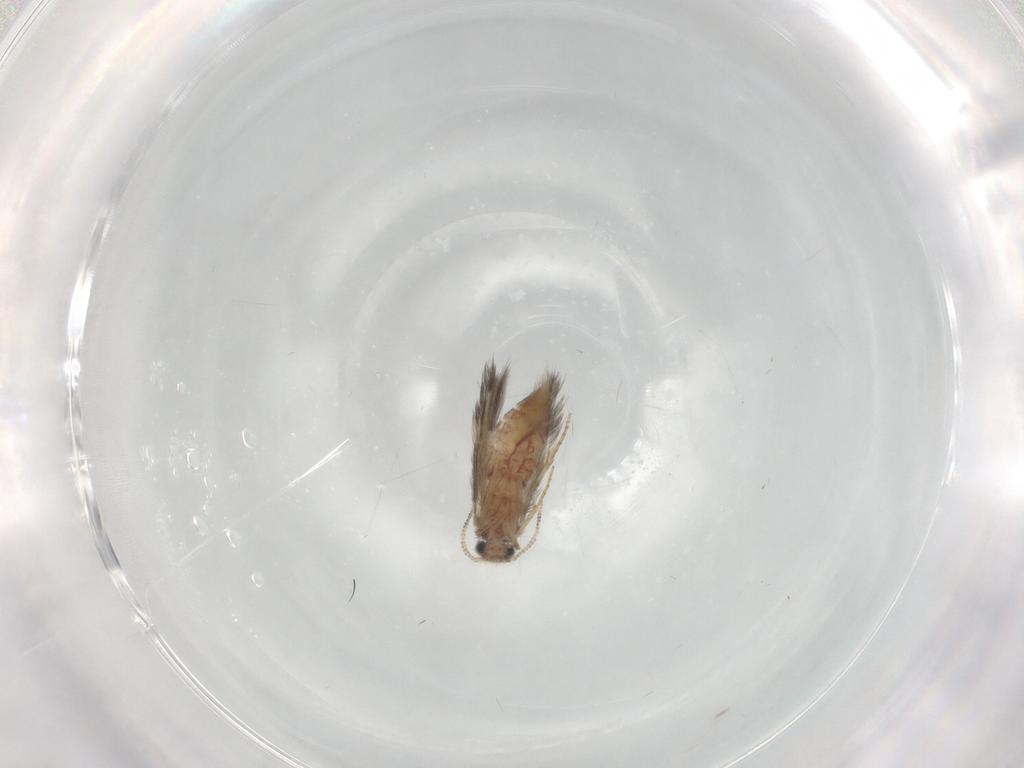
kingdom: Animalia
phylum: Arthropoda
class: Insecta
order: Trichoptera
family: Hydroptilidae
